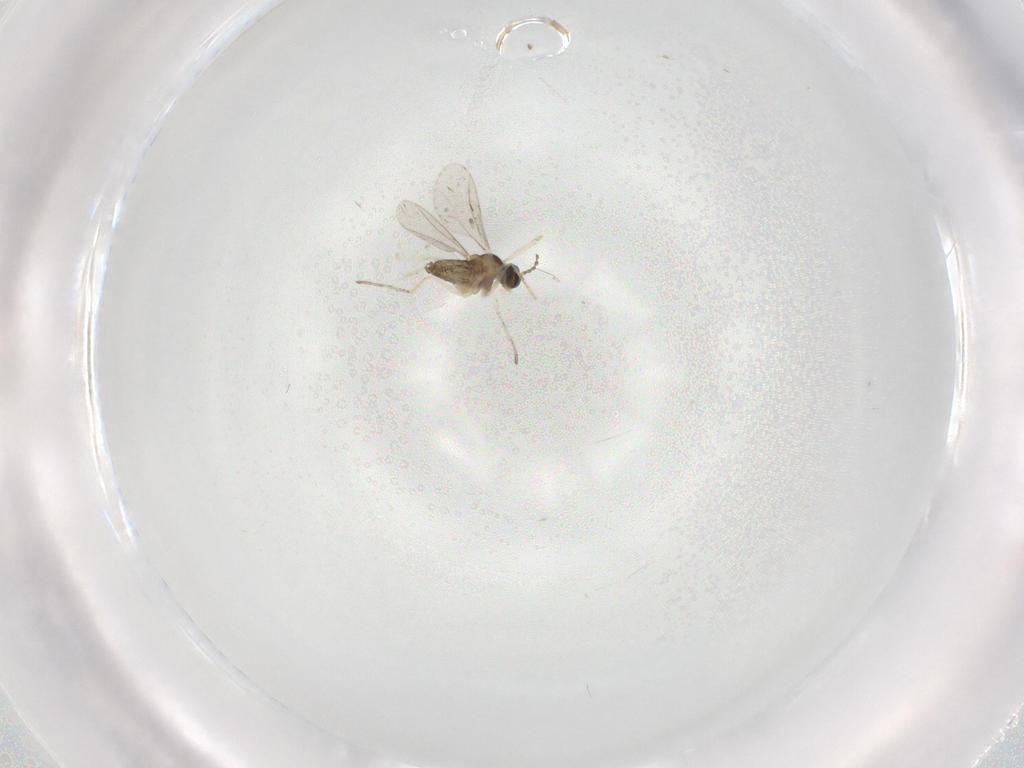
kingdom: Animalia
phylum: Arthropoda
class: Insecta
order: Diptera
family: Cecidomyiidae
